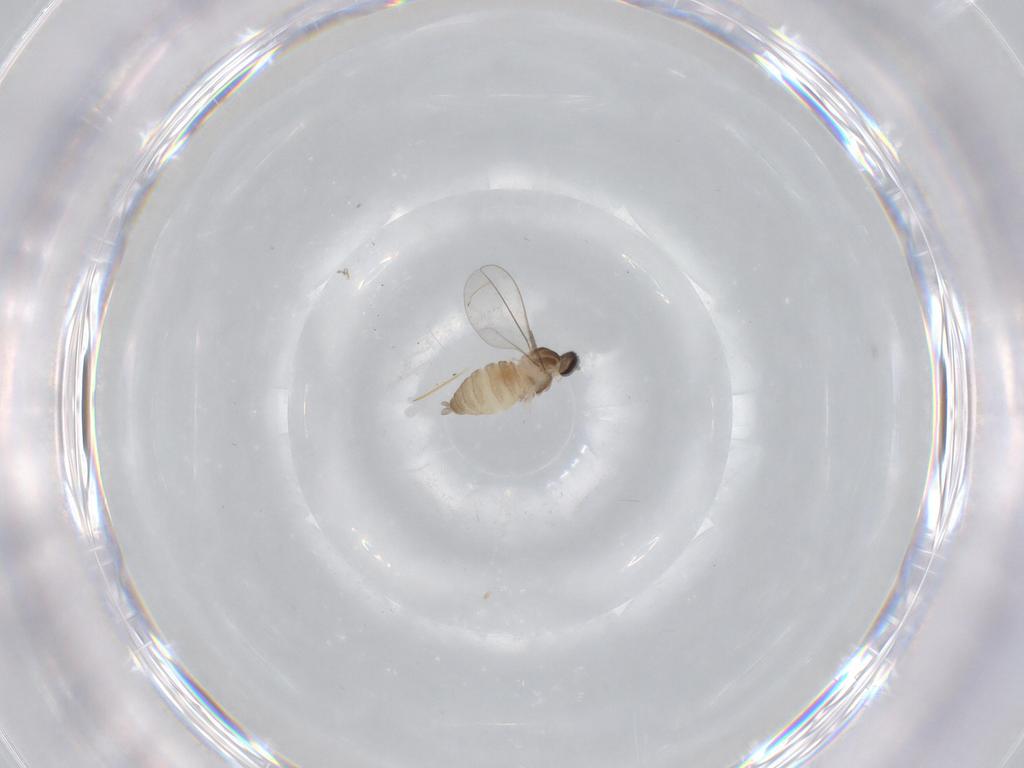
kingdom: Animalia
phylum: Arthropoda
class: Insecta
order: Diptera
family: Cecidomyiidae
